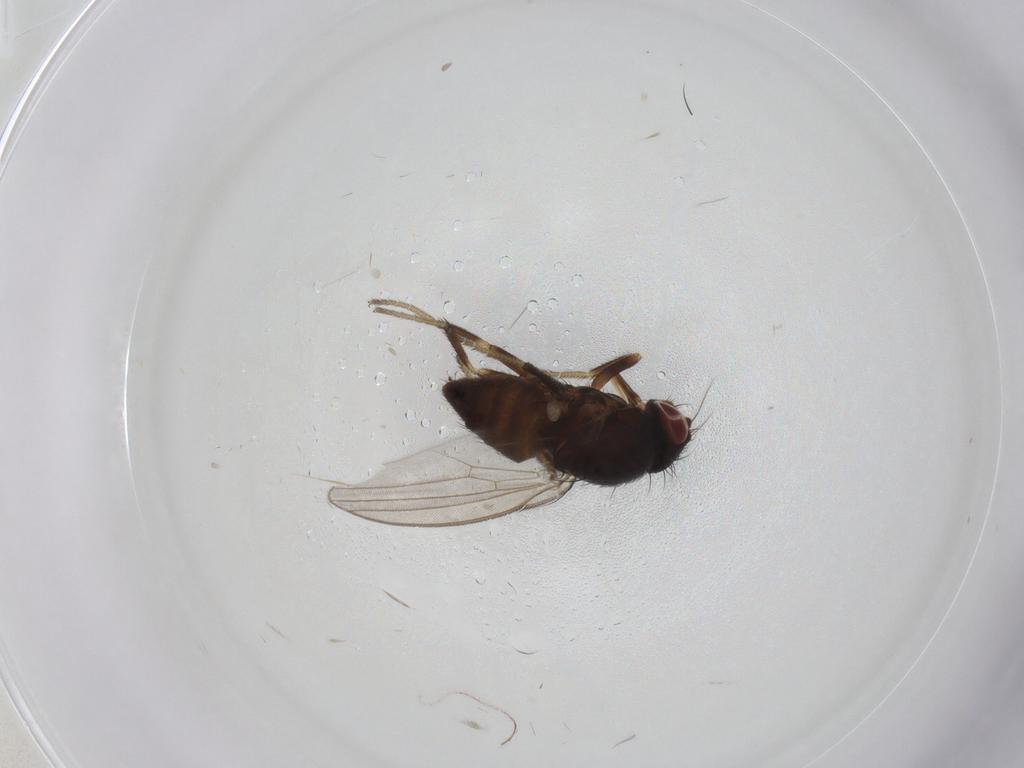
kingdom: Animalia
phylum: Arthropoda
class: Insecta
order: Diptera
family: Milichiidae
